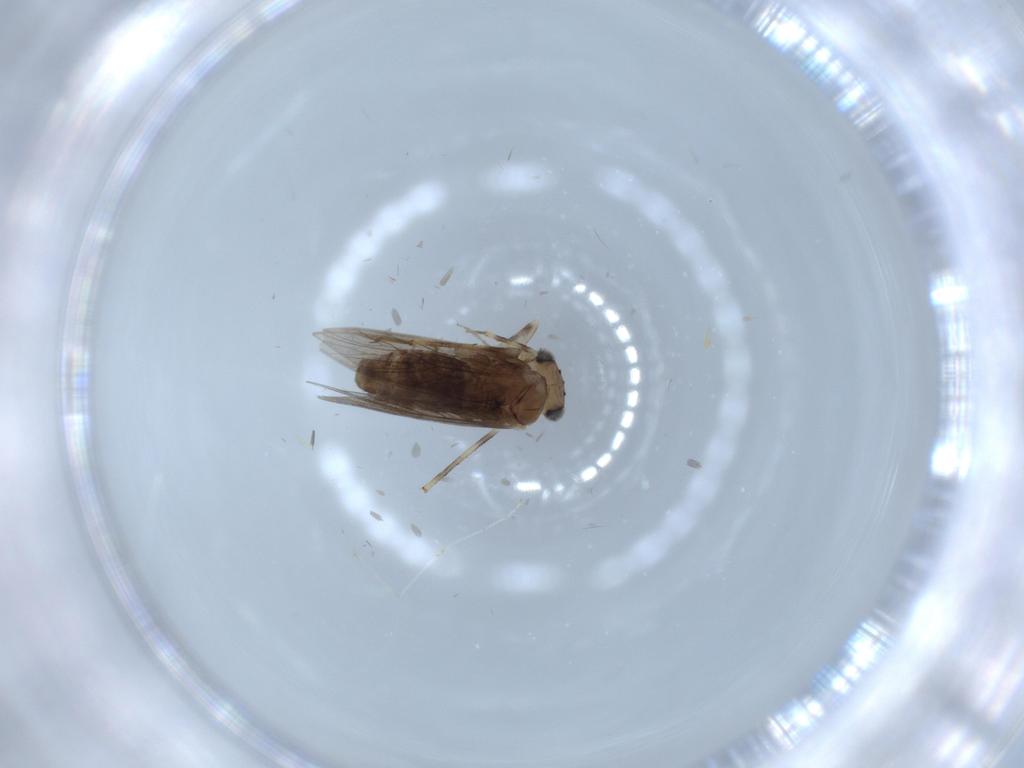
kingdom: Animalia
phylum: Arthropoda
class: Insecta
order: Psocodea
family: Lepidopsocidae
